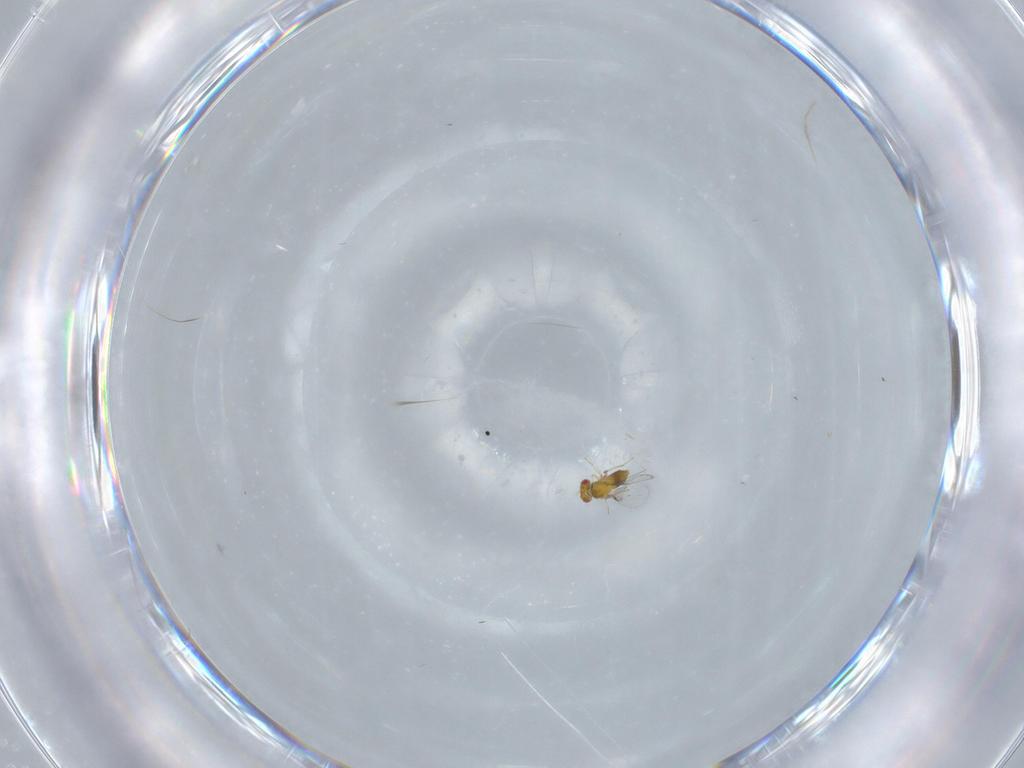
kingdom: Animalia
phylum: Arthropoda
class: Insecta
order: Hymenoptera
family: Trichogrammatidae
